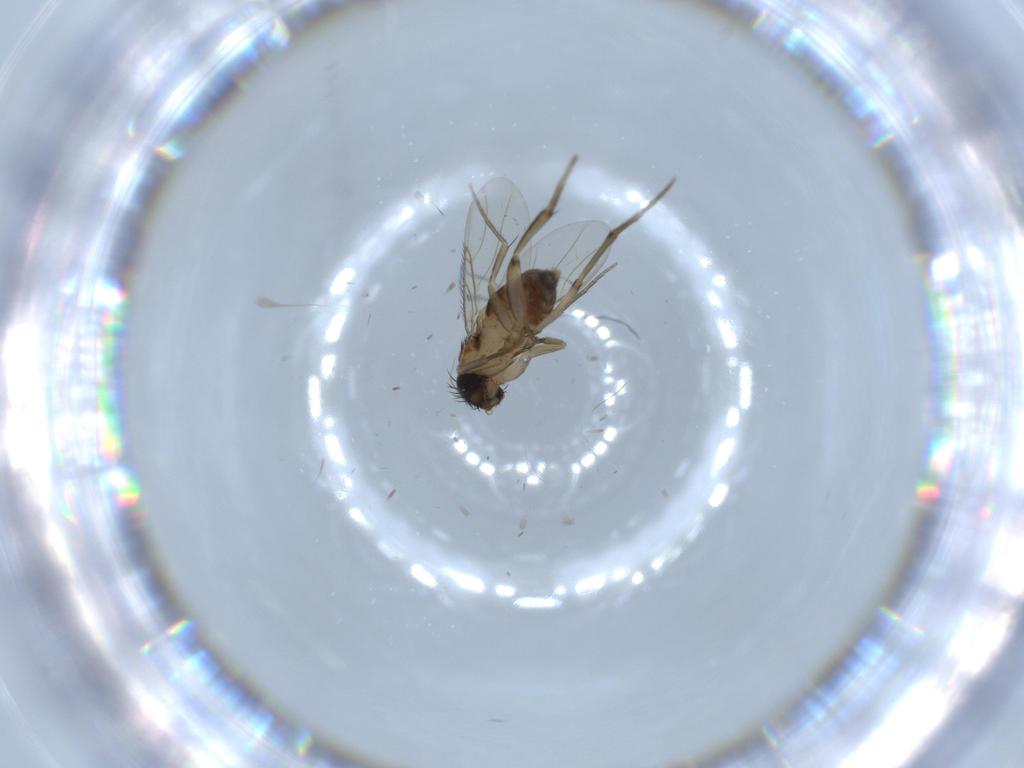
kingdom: Animalia
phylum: Arthropoda
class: Insecta
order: Diptera
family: Phoridae
